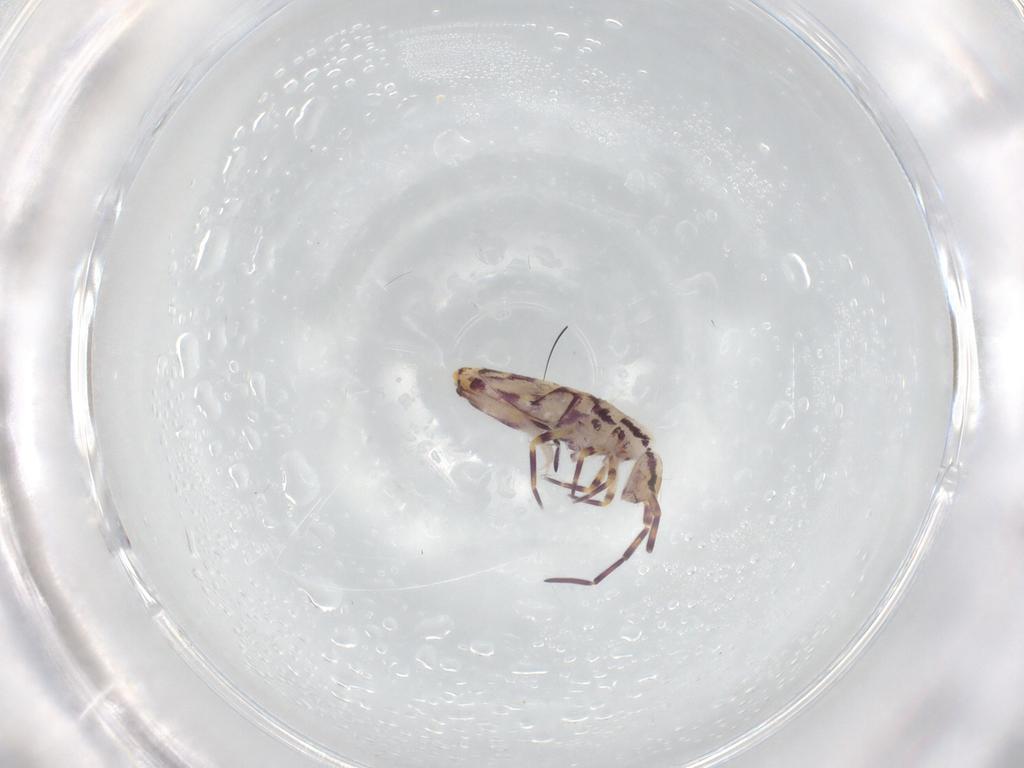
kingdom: Animalia
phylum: Arthropoda
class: Collembola
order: Entomobryomorpha
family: Entomobryidae
